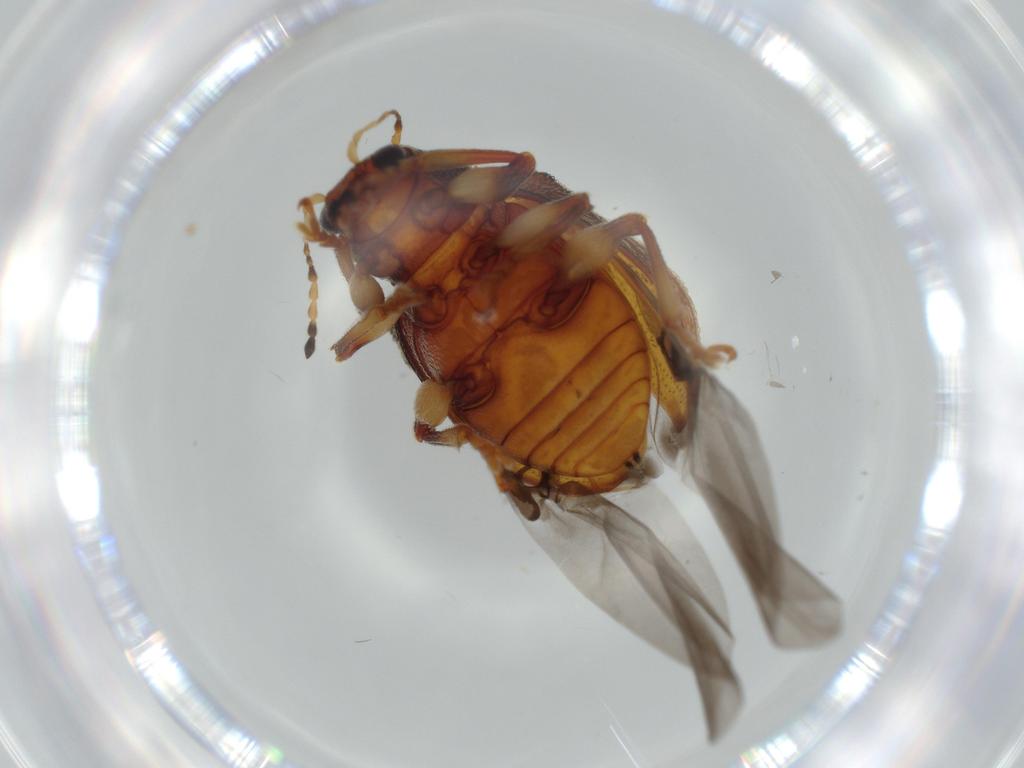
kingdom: Animalia
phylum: Arthropoda
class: Insecta
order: Coleoptera
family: Chrysomelidae
